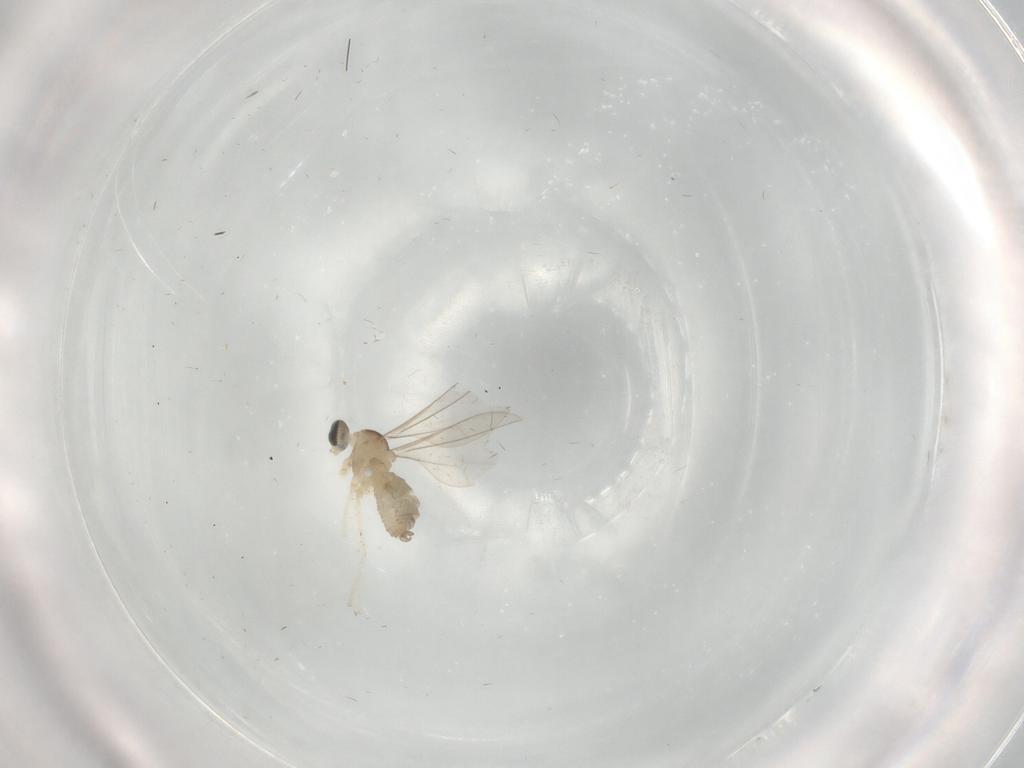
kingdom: Animalia
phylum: Arthropoda
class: Insecta
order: Diptera
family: Cecidomyiidae
